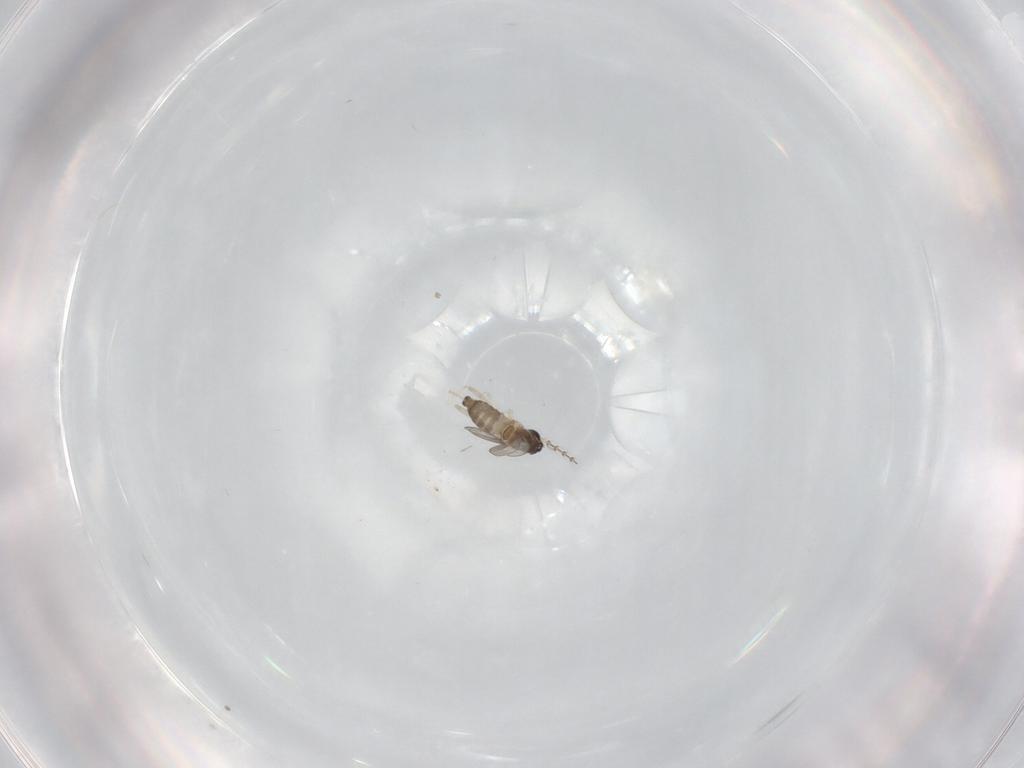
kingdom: Animalia
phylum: Arthropoda
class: Insecta
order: Diptera
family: Cecidomyiidae
